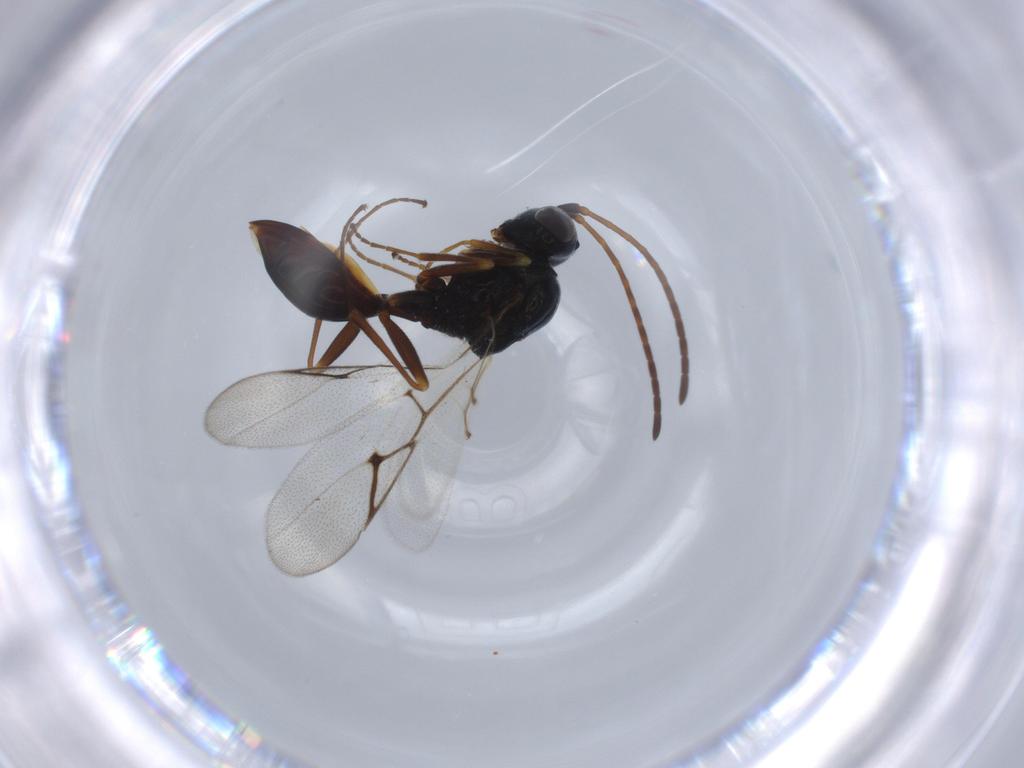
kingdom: Animalia
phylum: Arthropoda
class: Insecta
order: Hymenoptera
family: Figitidae
